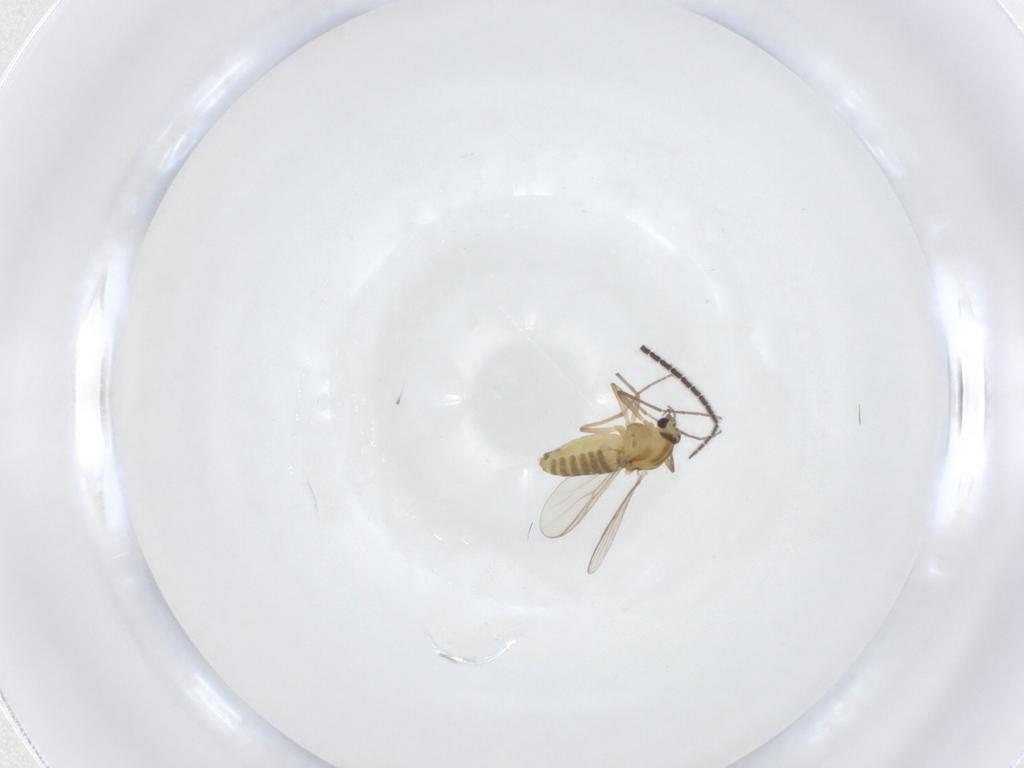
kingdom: Animalia
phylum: Arthropoda
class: Insecta
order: Diptera
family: Chironomidae
